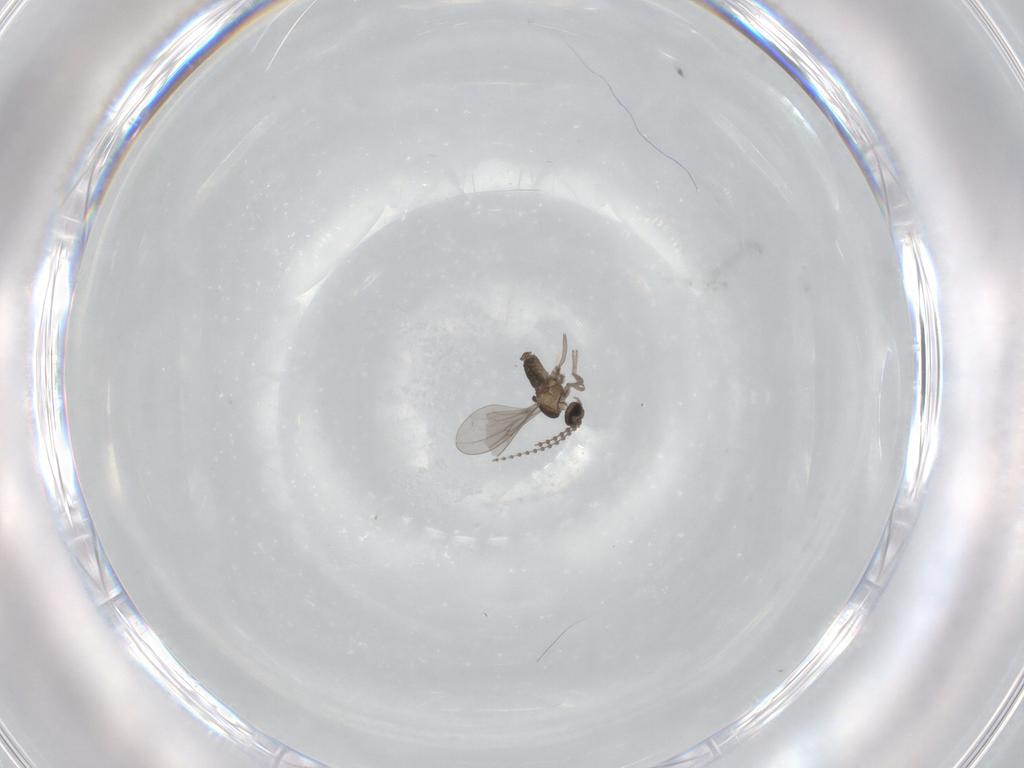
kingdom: Animalia
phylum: Arthropoda
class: Insecta
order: Diptera
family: Cecidomyiidae
